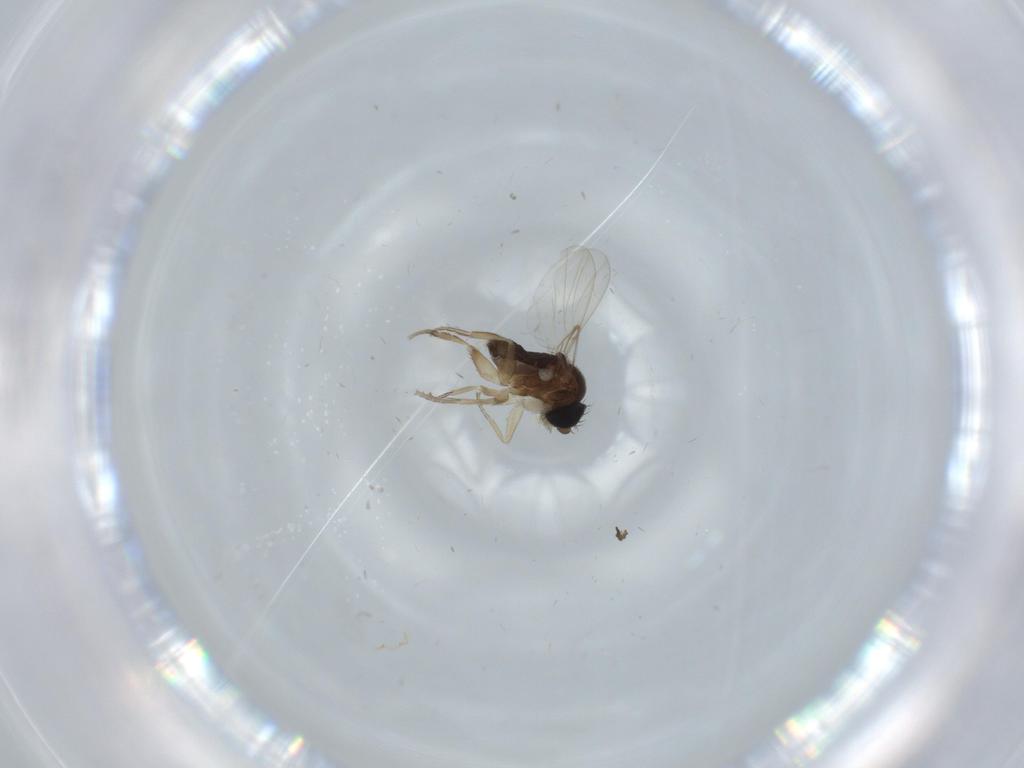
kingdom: Animalia
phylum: Arthropoda
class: Insecta
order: Diptera
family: Phoridae
